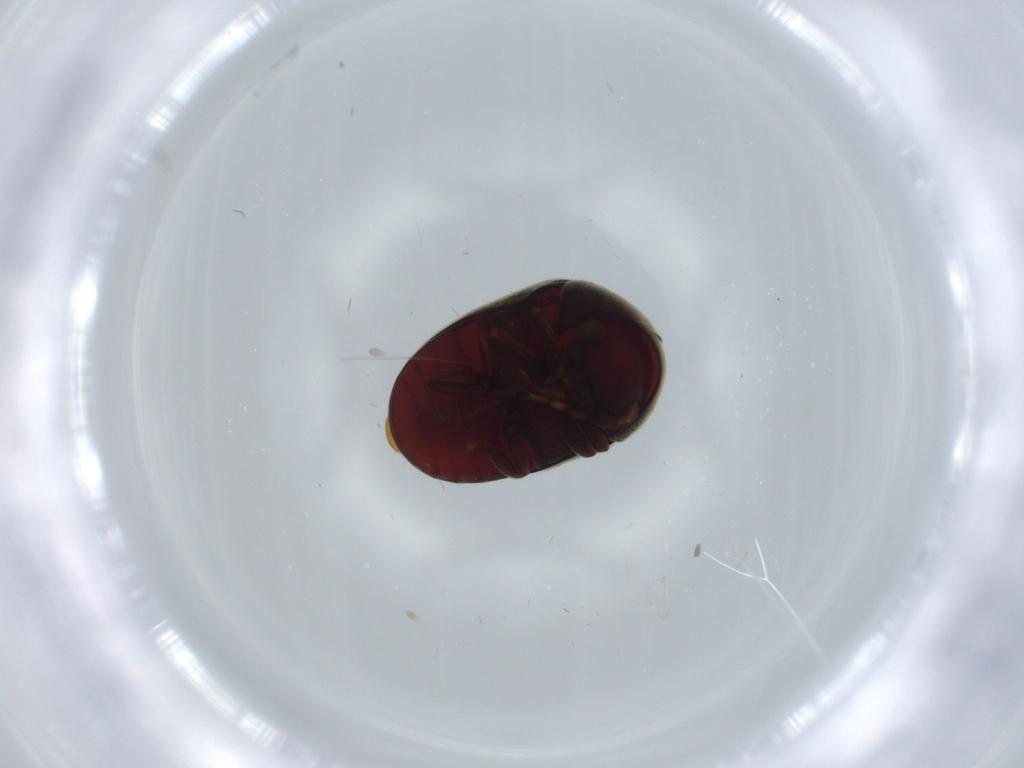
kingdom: Animalia
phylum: Arthropoda
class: Insecta
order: Coleoptera
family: Ptinidae
